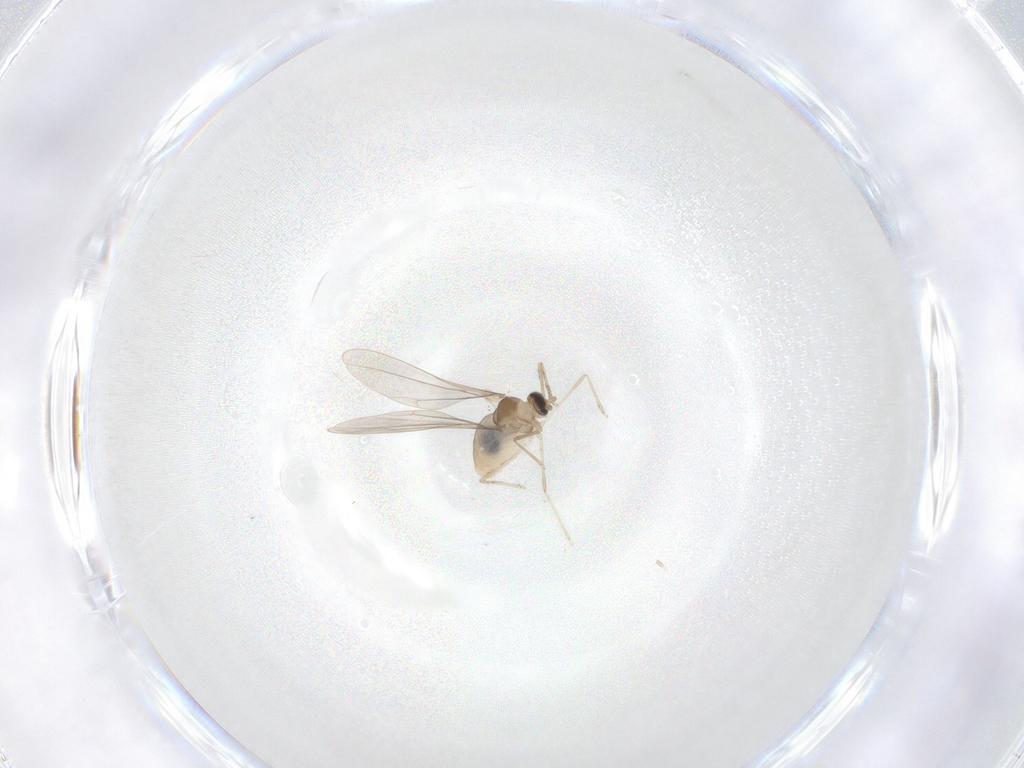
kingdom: Animalia
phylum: Arthropoda
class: Insecta
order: Diptera
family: Cecidomyiidae
